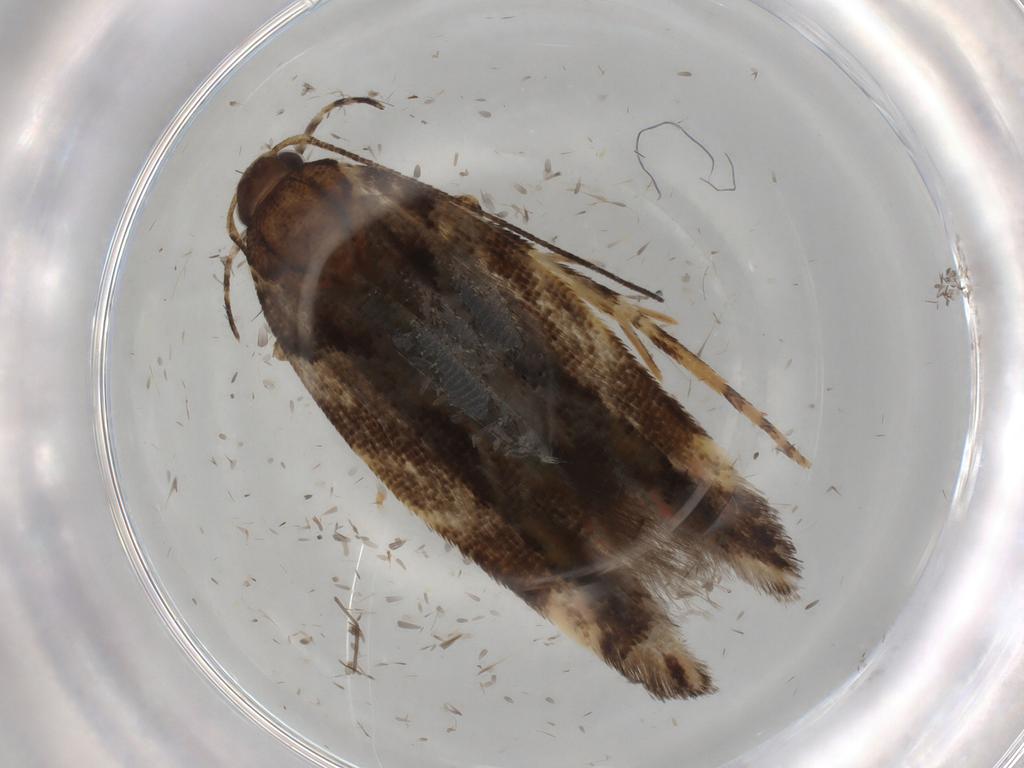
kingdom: Animalia
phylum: Arthropoda
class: Insecta
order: Lepidoptera
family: Gelechiidae
